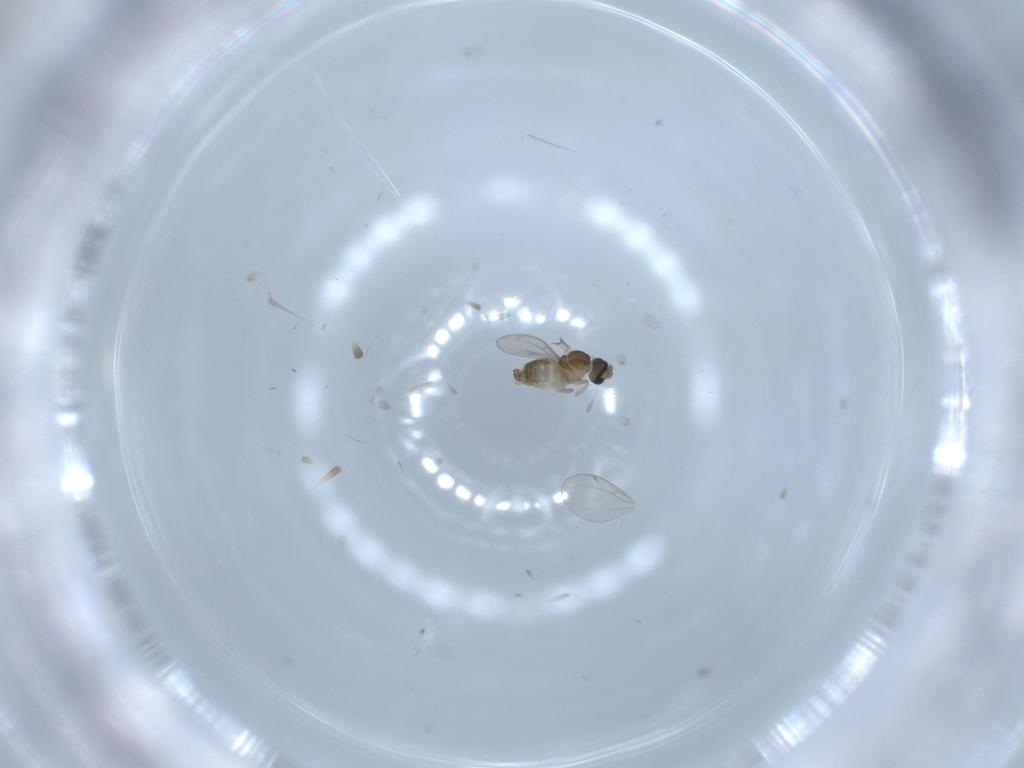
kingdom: Animalia
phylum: Arthropoda
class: Insecta
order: Diptera
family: Cecidomyiidae
